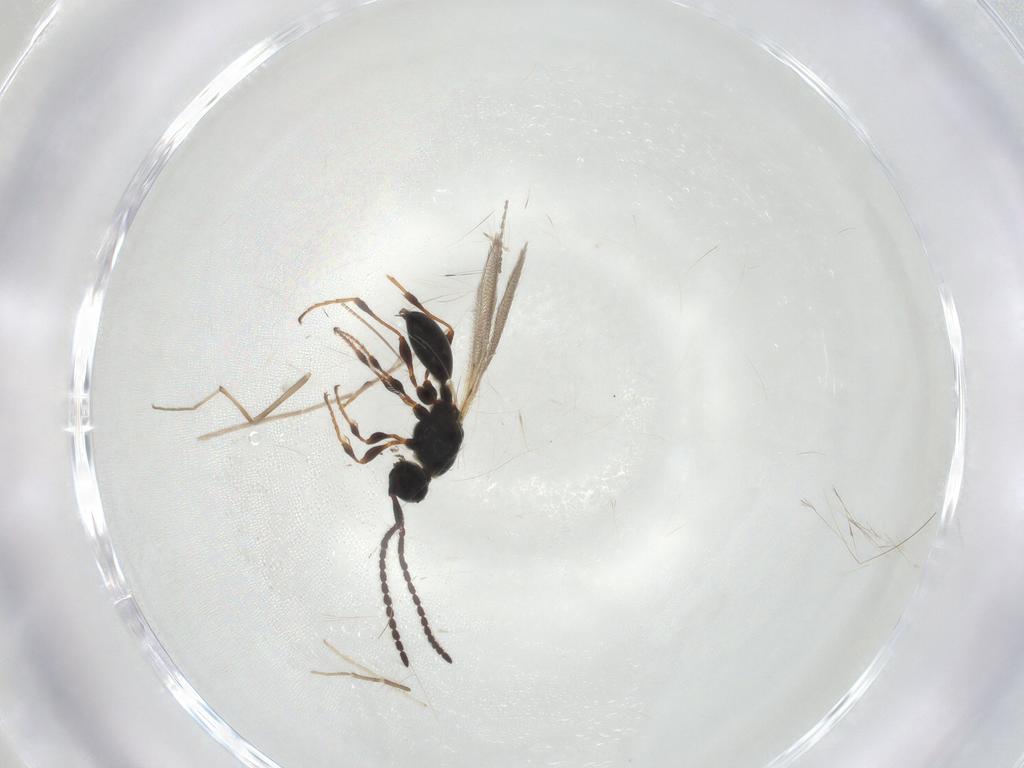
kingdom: Animalia
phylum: Arthropoda
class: Insecta
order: Hymenoptera
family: Diapriidae
